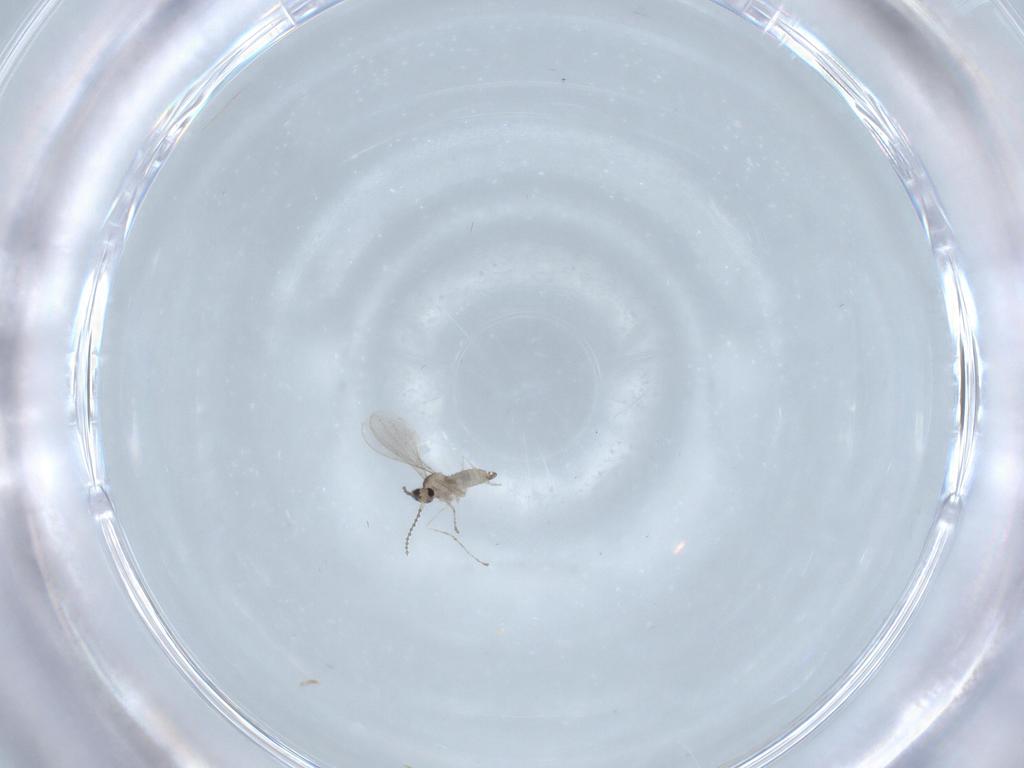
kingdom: Animalia
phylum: Arthropoda
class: Insecta
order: Diptera
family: Cecidomyiidae
